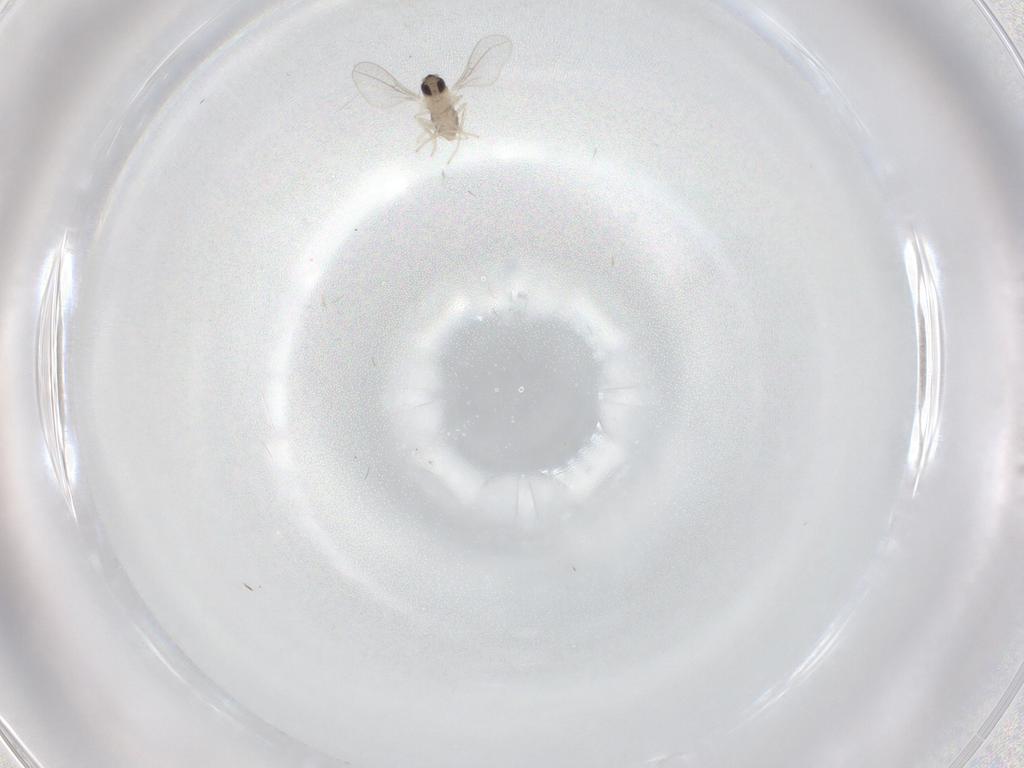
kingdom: Animalia
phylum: Arthropoda
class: Insecta
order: Diptera
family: Cecidomyiidae
